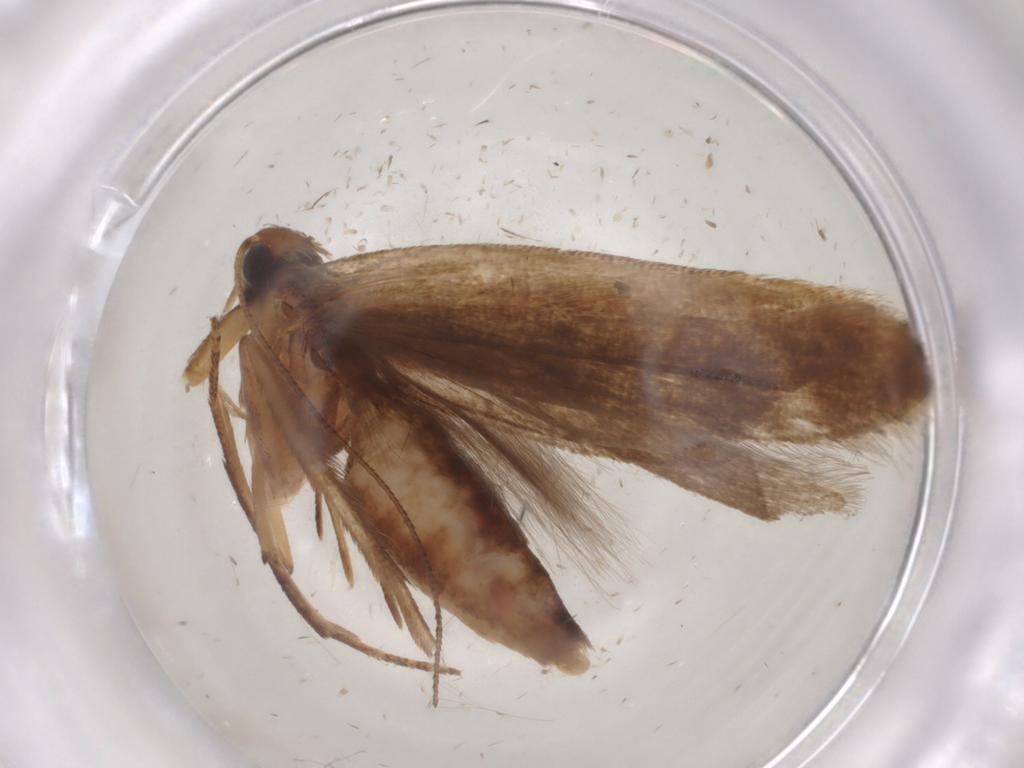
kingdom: Animalia
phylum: Arthropoda
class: Insecta
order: Lepidoptera
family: Gelechiidae
